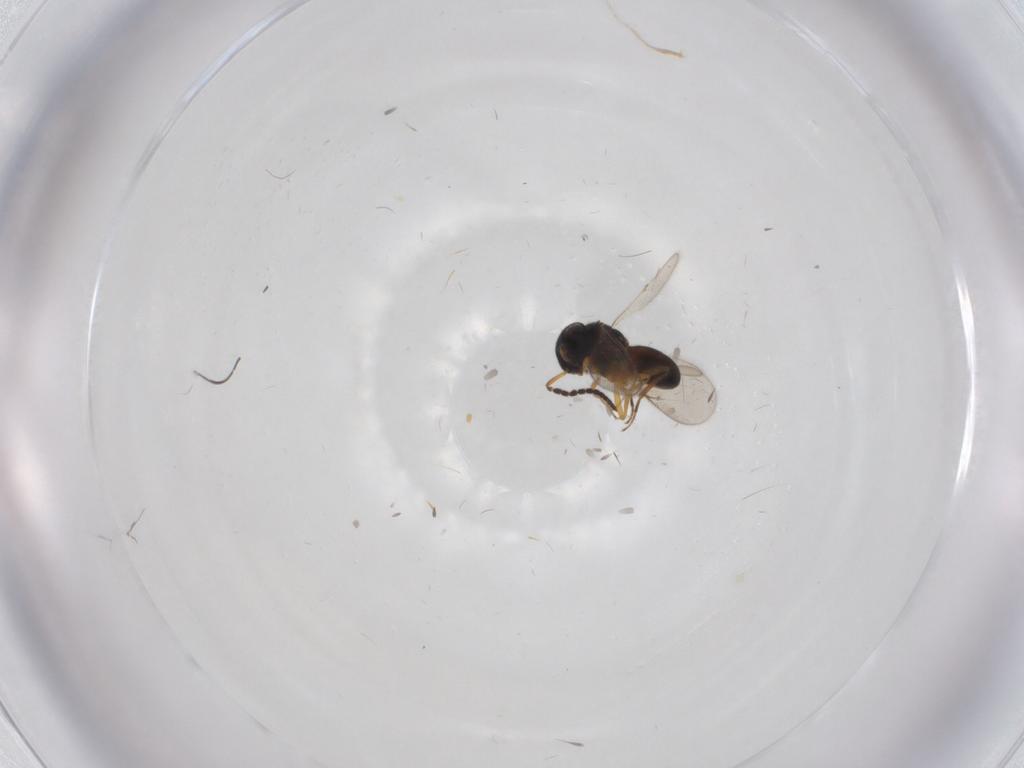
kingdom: Animalia
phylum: Arthropoda
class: Insecta
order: Hymenoptera
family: Scelionidae
